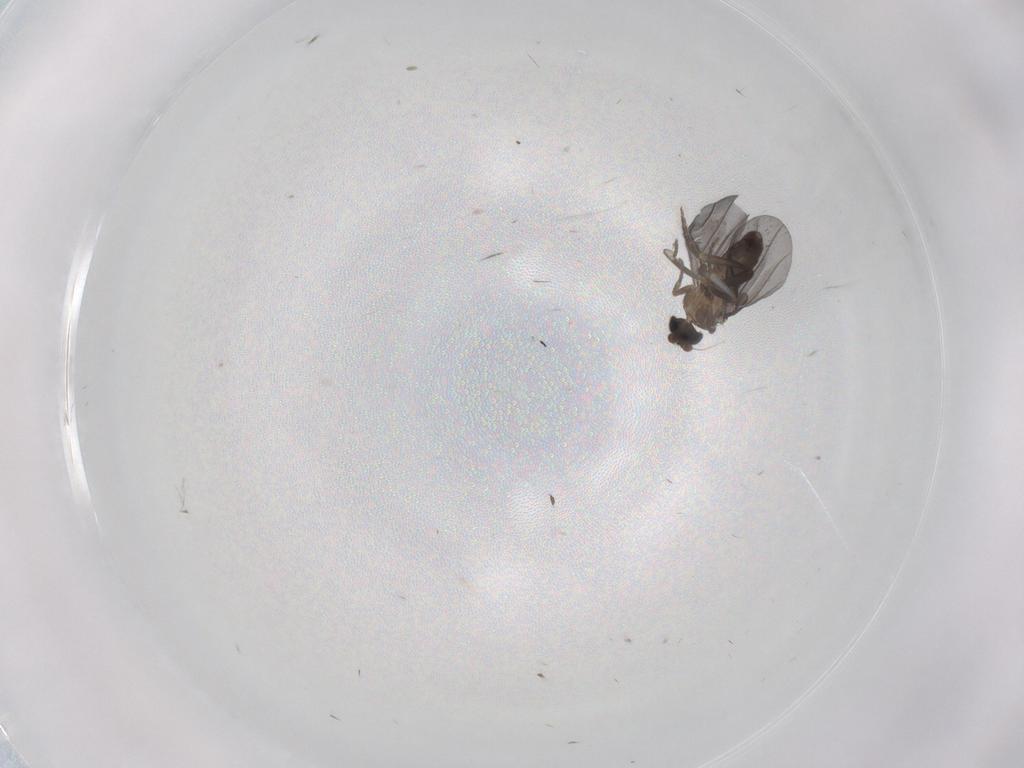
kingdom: Animalia
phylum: Arthropoda
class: Insecta
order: Diptera
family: Phoridae
